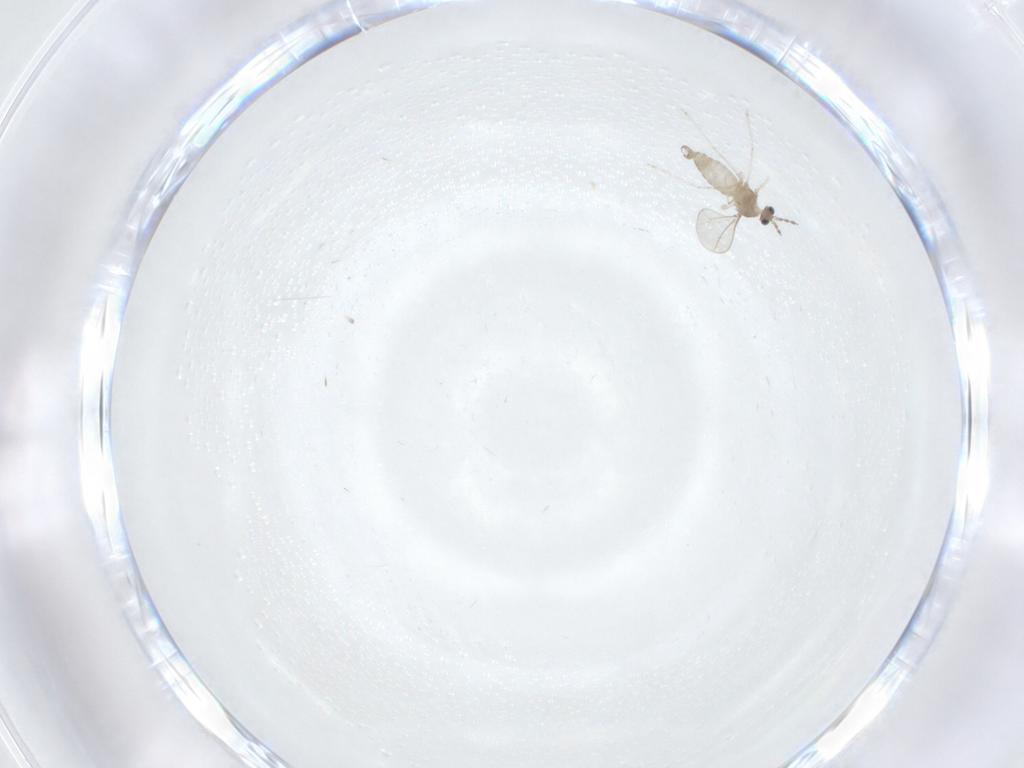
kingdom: Animalia
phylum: Arthropoda
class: Insecta
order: Diptera
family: Cecidomyiidae
